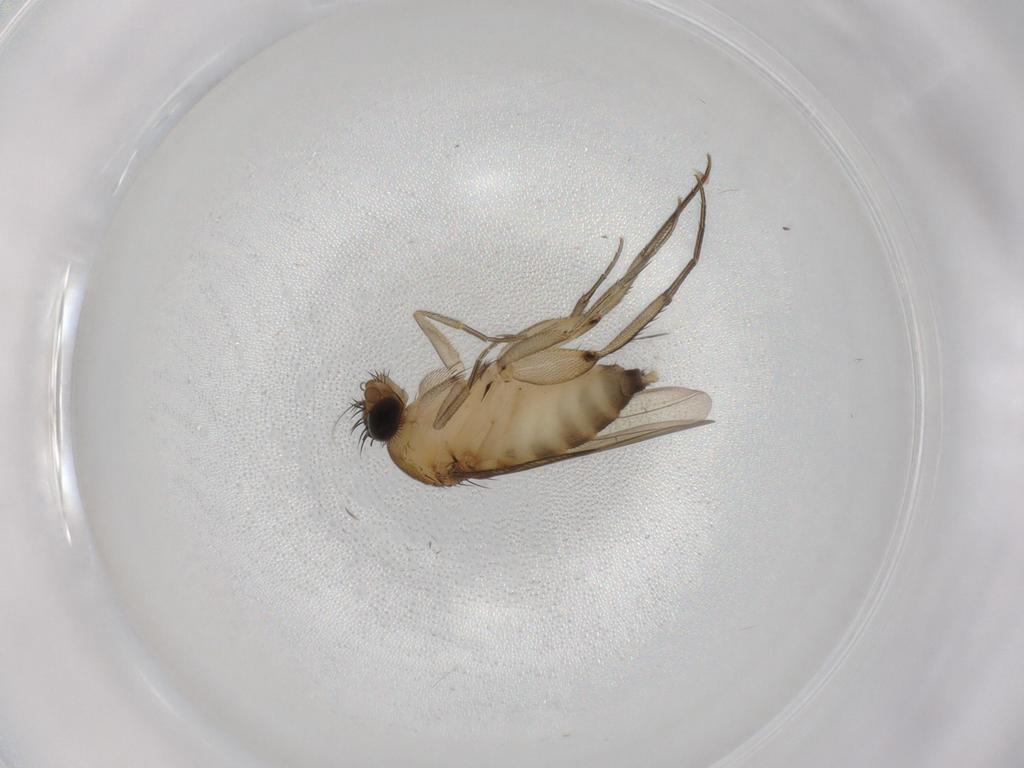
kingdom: Animalia
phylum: Arthropoda
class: Insecta
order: Diptera
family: Phoridae
